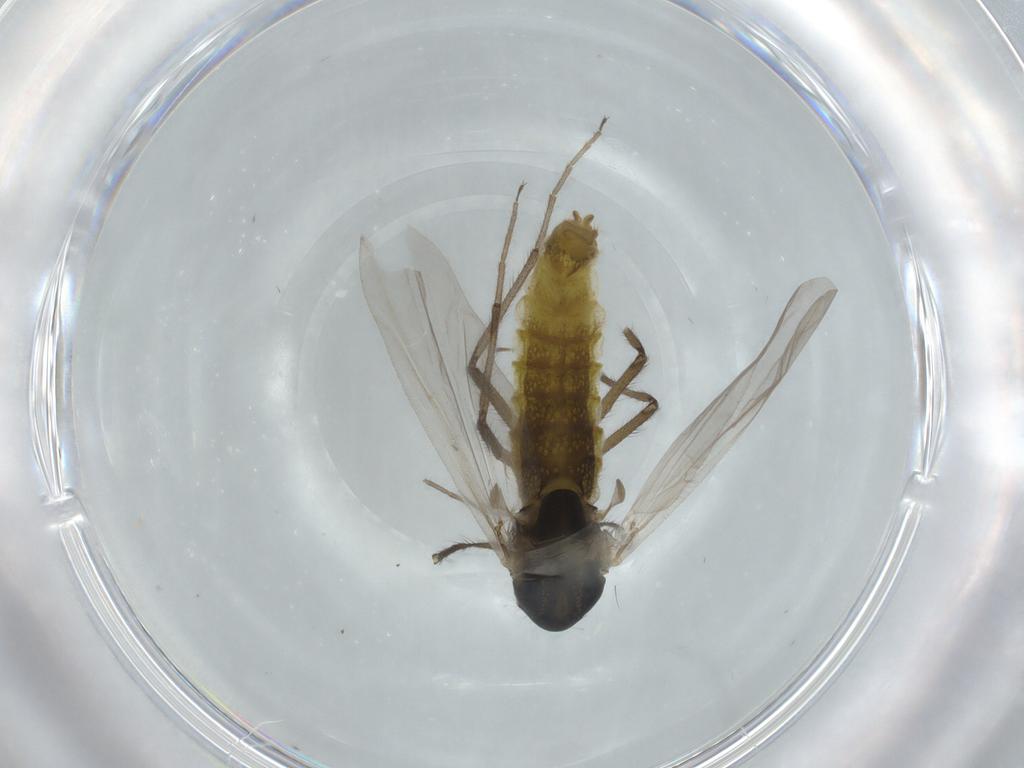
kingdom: Animalia
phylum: Arthropoda
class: Insecta
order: Diptera
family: Chironomidae
